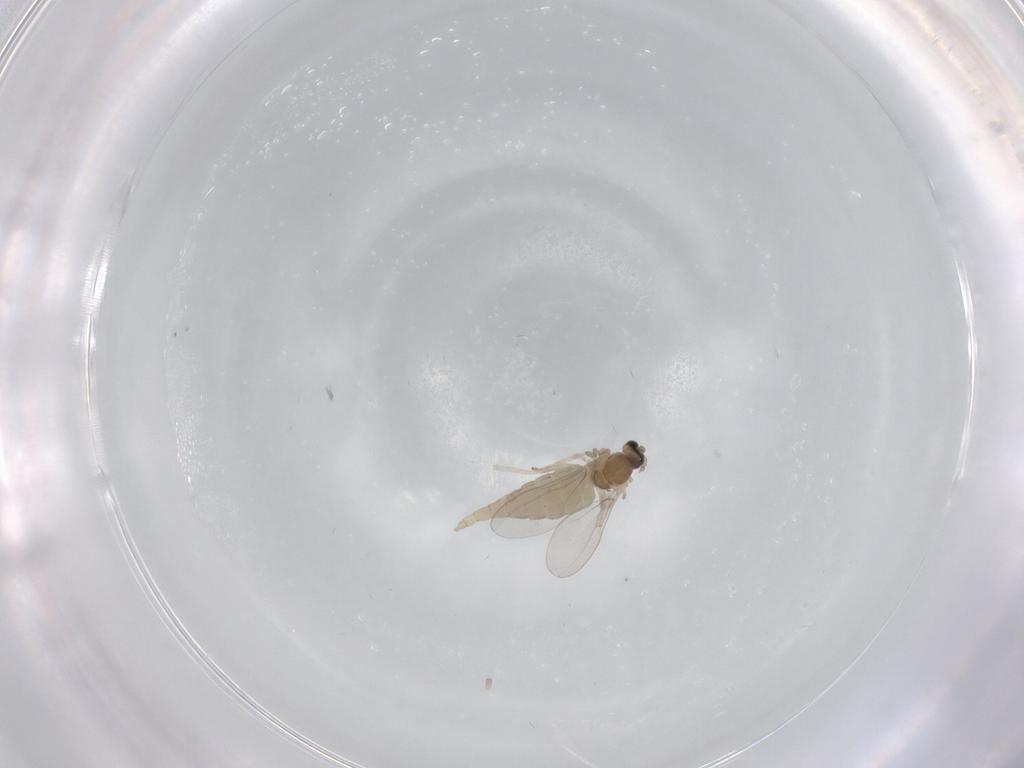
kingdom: Animalia
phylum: Arthropoda
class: Insecta
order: Diptera
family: Cecidomyiidae
